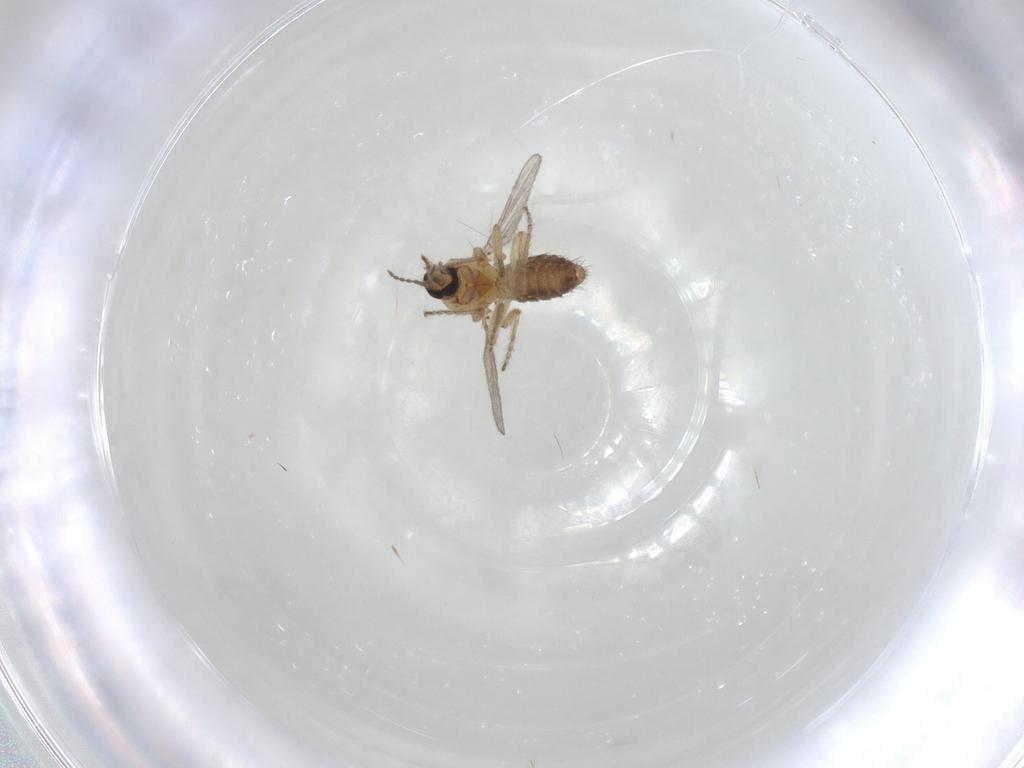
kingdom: Animalia
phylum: Arthropoda
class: Insecta
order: Diptera
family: Ceratopogonidae
